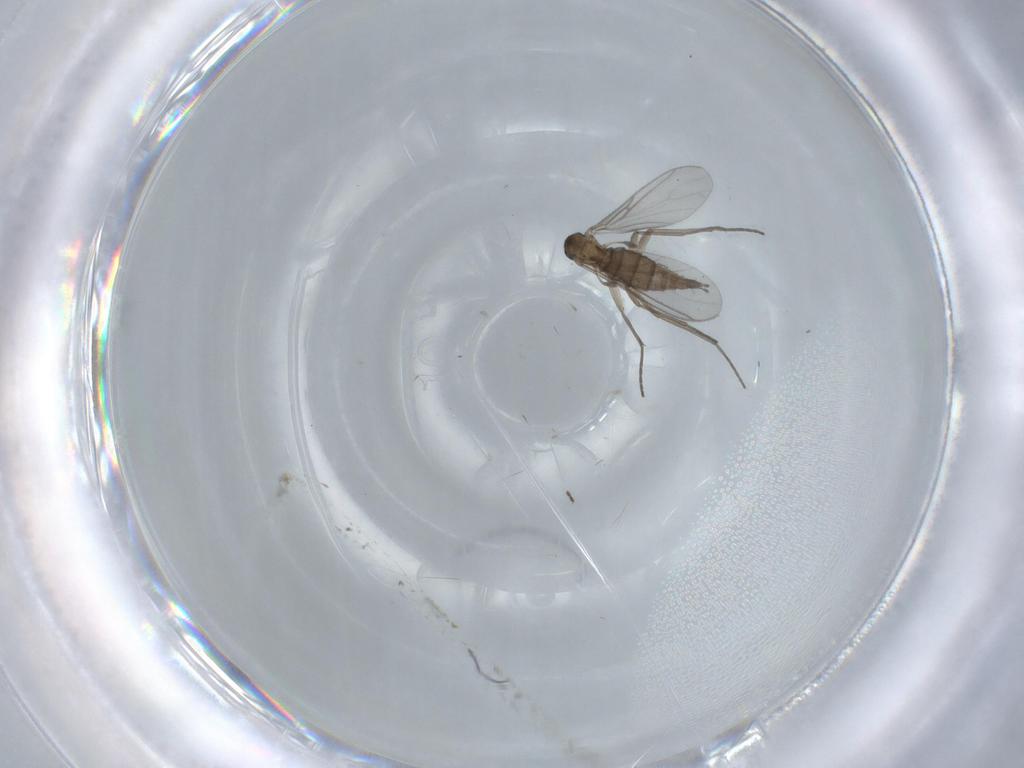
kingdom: Animalia
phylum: Arthropoda
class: Insecta
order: Diptera
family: Sciaridae
